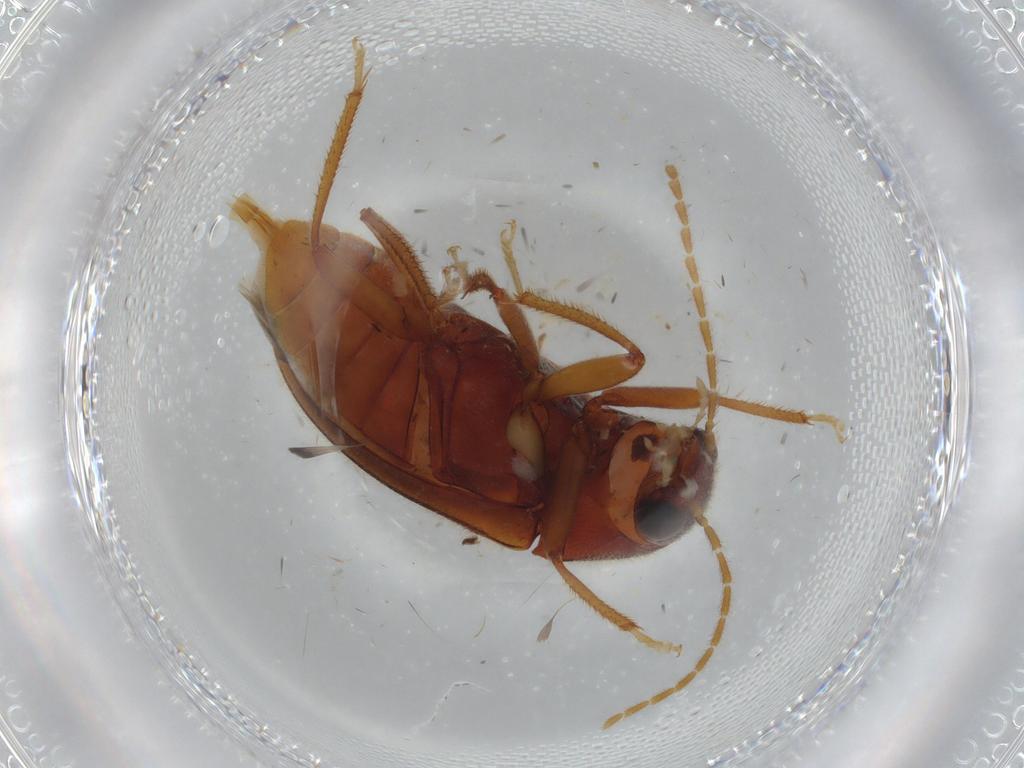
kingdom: Animalia
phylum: Arthropoda
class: Insecta
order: Coleoptera
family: Ptilodactylidae
